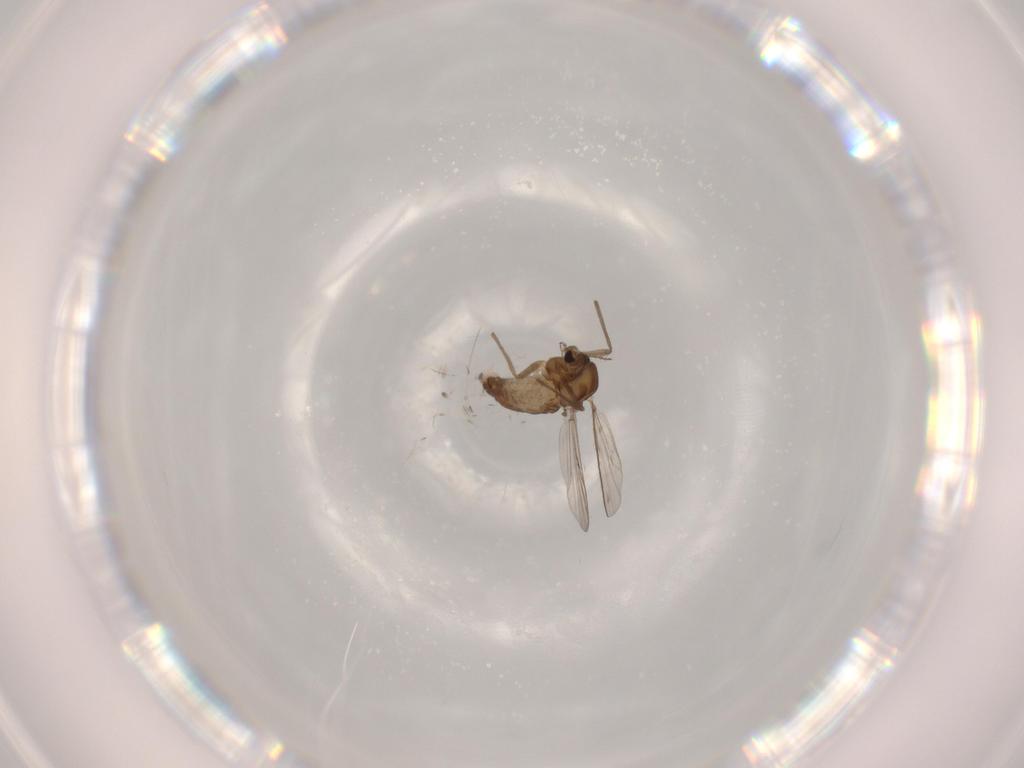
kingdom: Animalia
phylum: Arthropoda
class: Insecta
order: Diptera
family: Chironomidae
